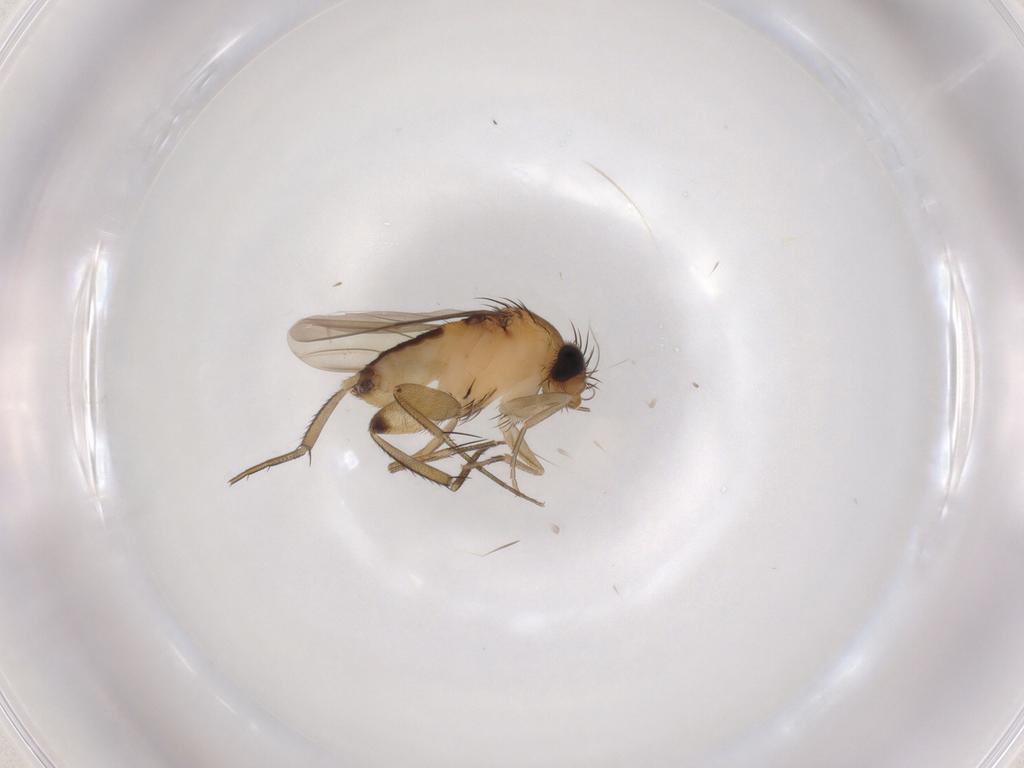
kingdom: Animalia
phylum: Arthropoda
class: Insecta
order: Diptera
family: Phoridae
